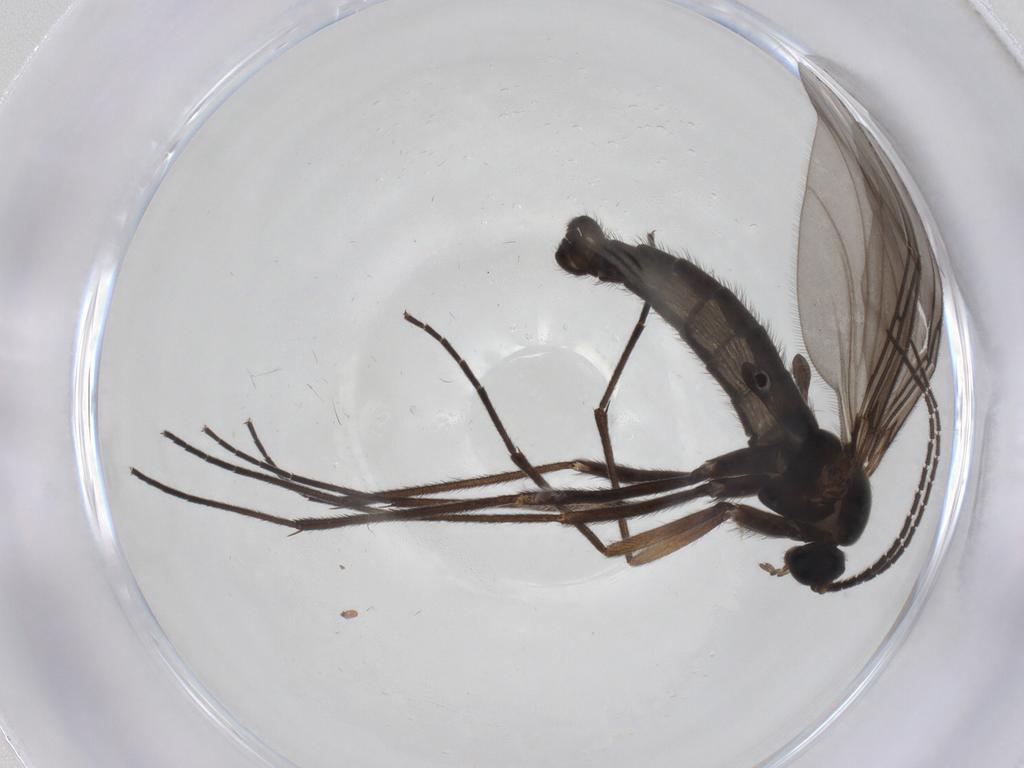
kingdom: Animalia
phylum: Arthropoda
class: Insecta
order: Diptera
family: Sciaridae
